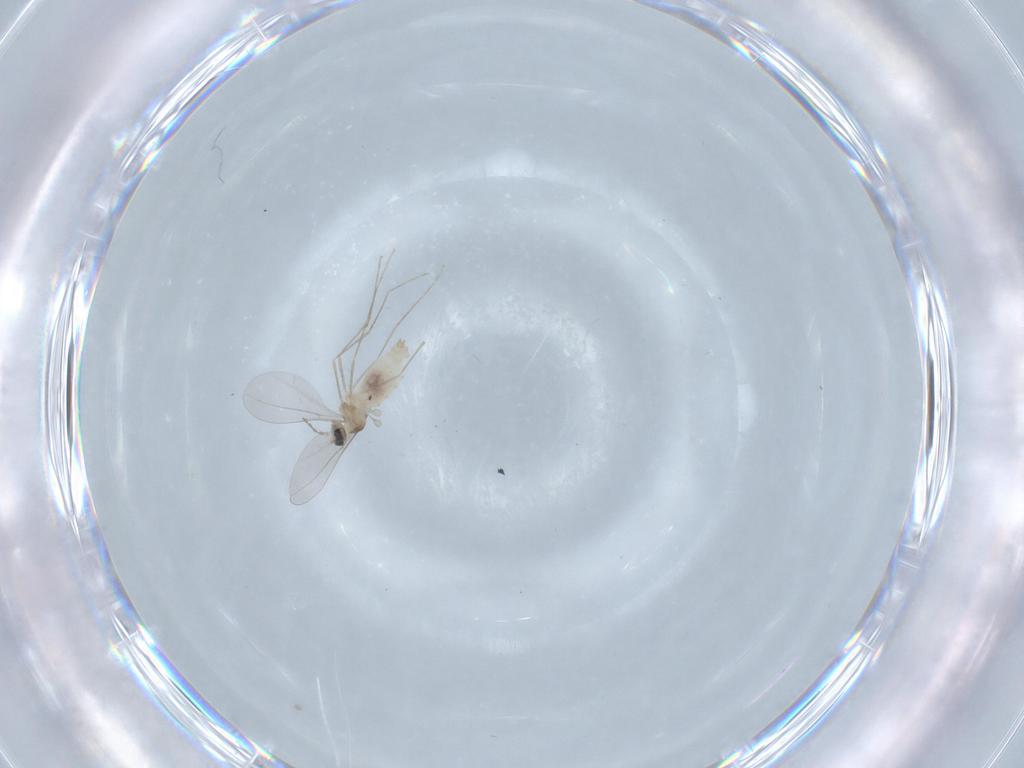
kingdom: Animalia
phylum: Arthropoda
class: Insecta
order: Diptera
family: Cecidomyiidae
